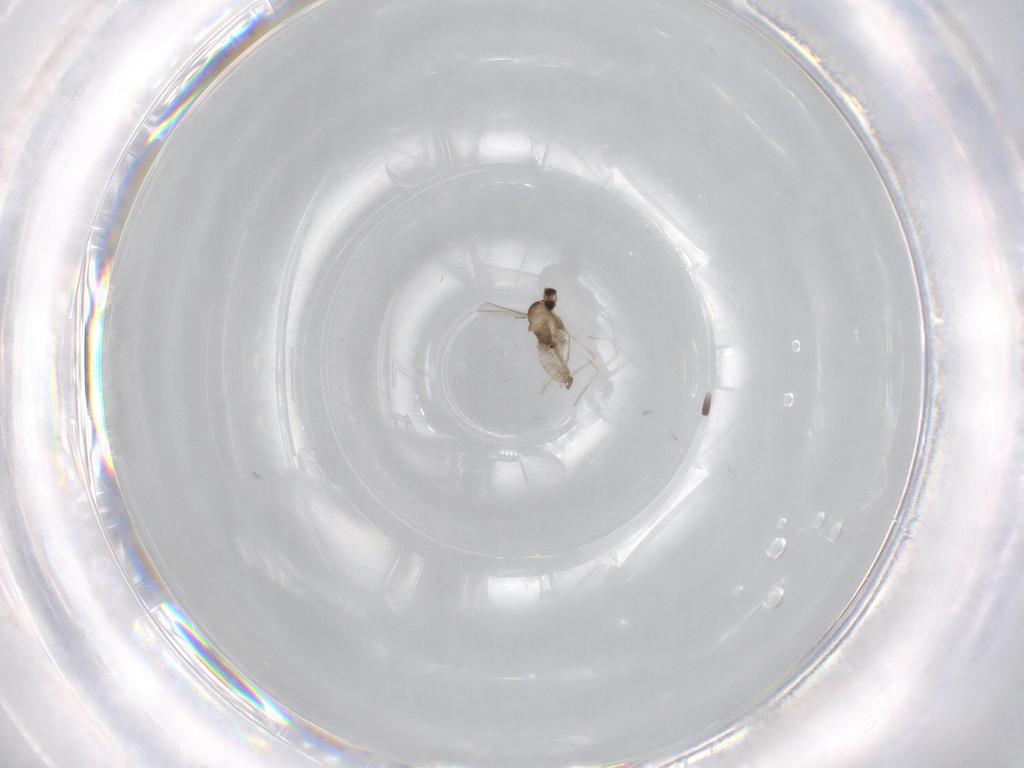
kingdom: Animalia
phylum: Arthropoda
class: Insecta
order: Diptera
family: Cecidomyiidae
